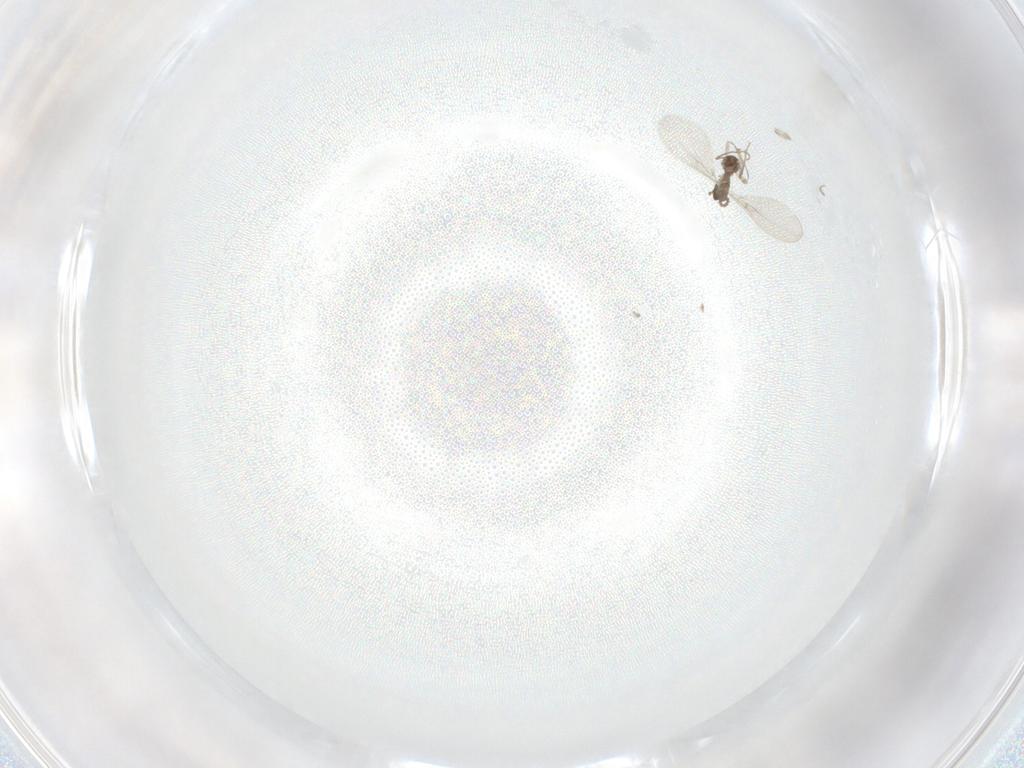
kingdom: Animalia
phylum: Arthropoda
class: Insecta
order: Diptera
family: Cecidomyiidae
